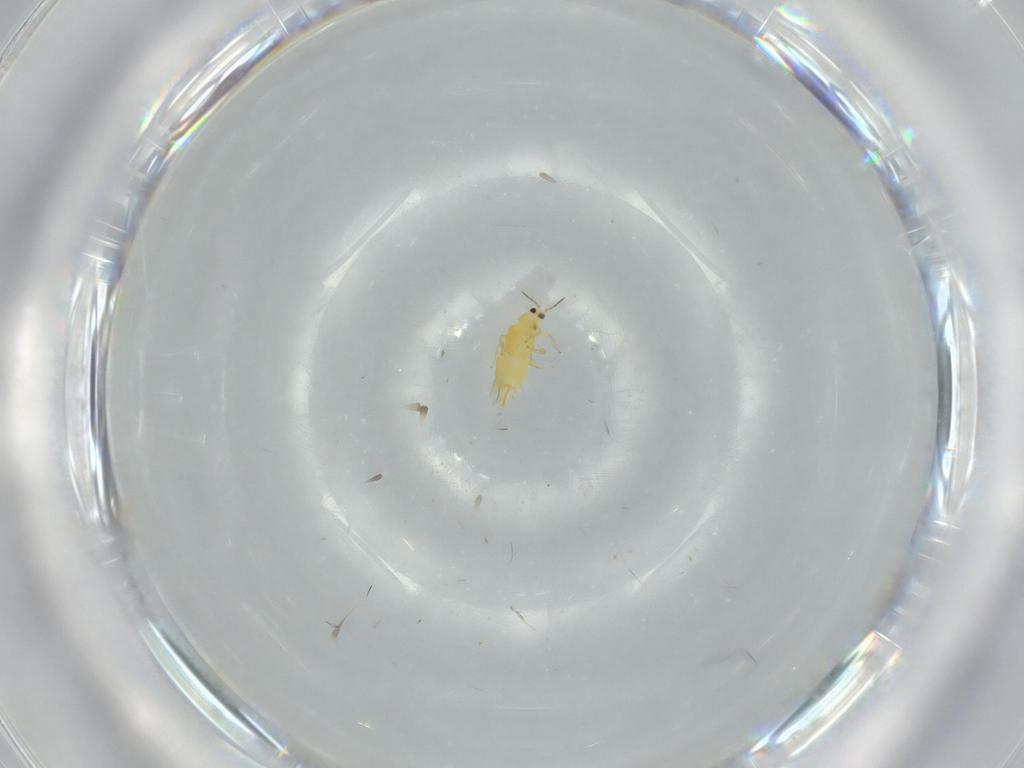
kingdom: Animalia
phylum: Arthropoda
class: Insecta
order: Thysanoptera
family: Thripidae
